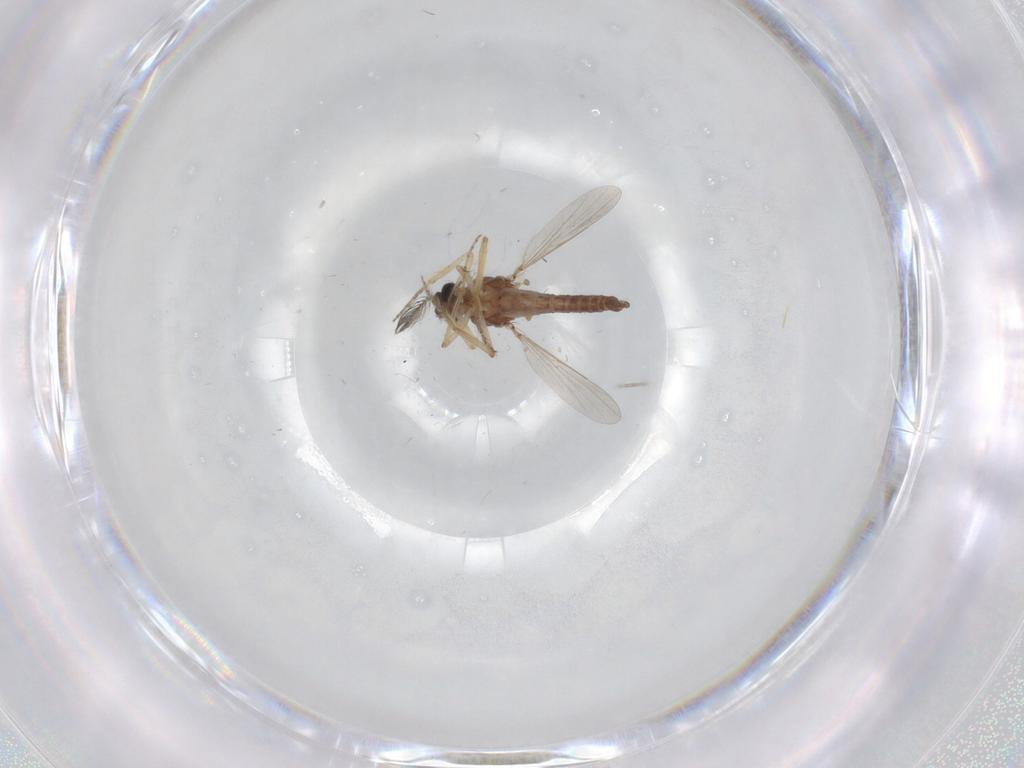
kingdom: Animalia
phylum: Arthropoda
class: Insecta
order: Diptera
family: Ceratopogonidae
